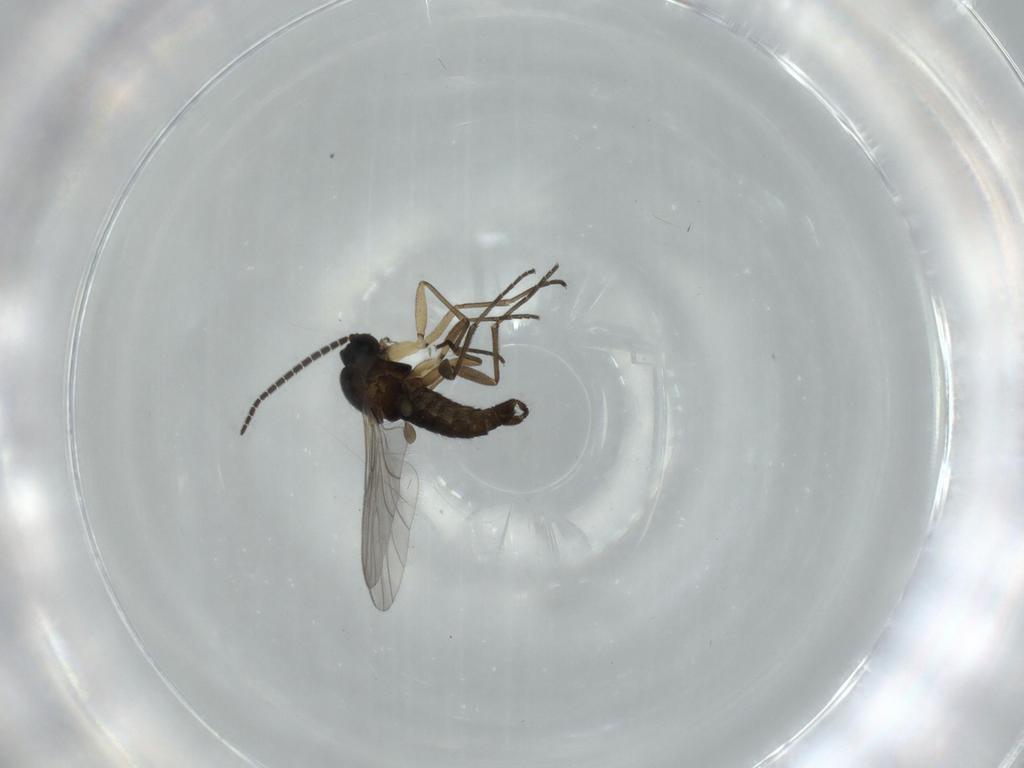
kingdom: Animalia
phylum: Arthropoda
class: Insecta
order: Diptera
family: Sciaridae
